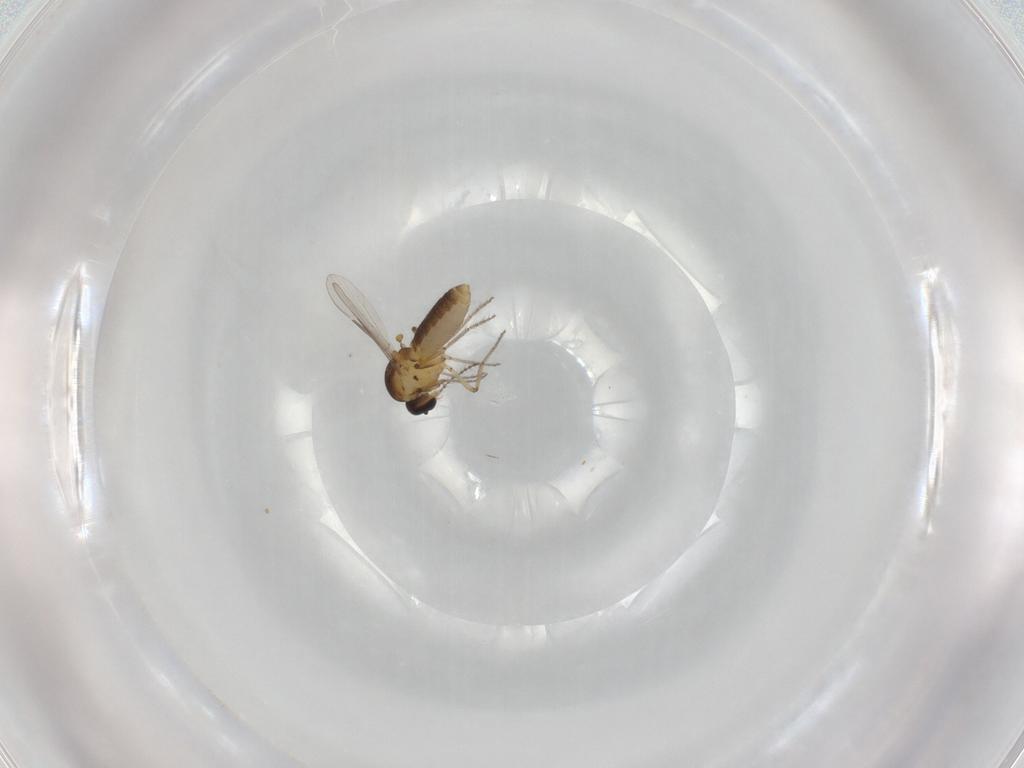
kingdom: Animalia
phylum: Arthropoda
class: Insecta
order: Diptera
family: Ceratopogonidae
